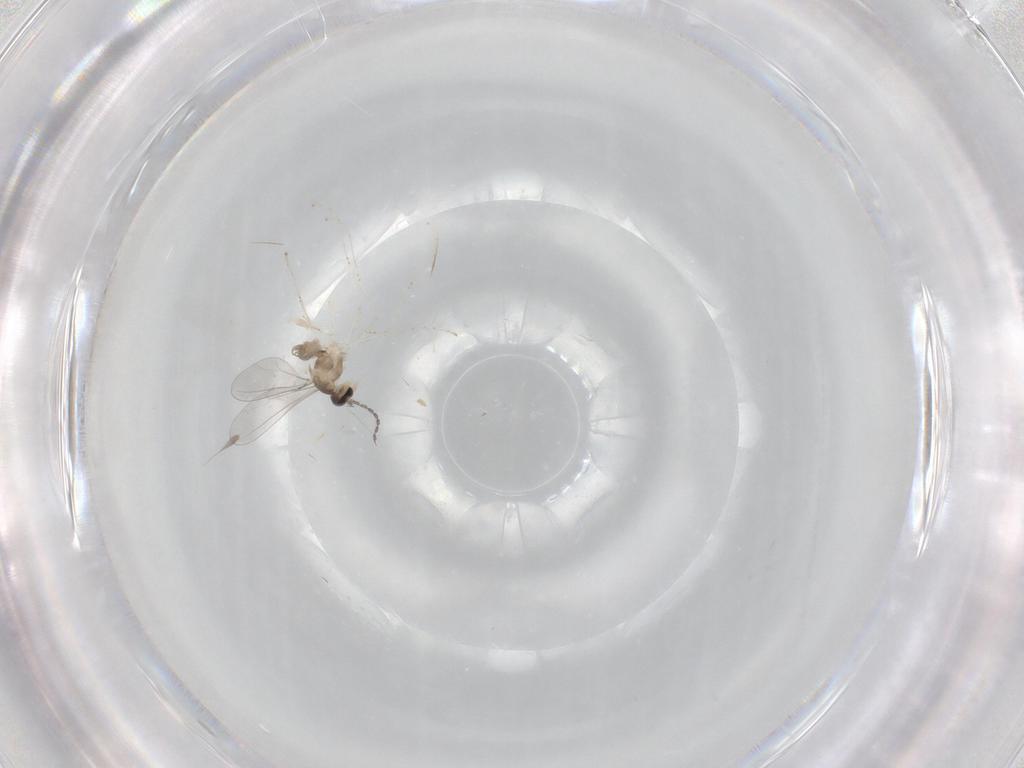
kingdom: Animalia
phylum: Arthropoda
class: Insecta
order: Diptera
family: Cecidomyiidae
